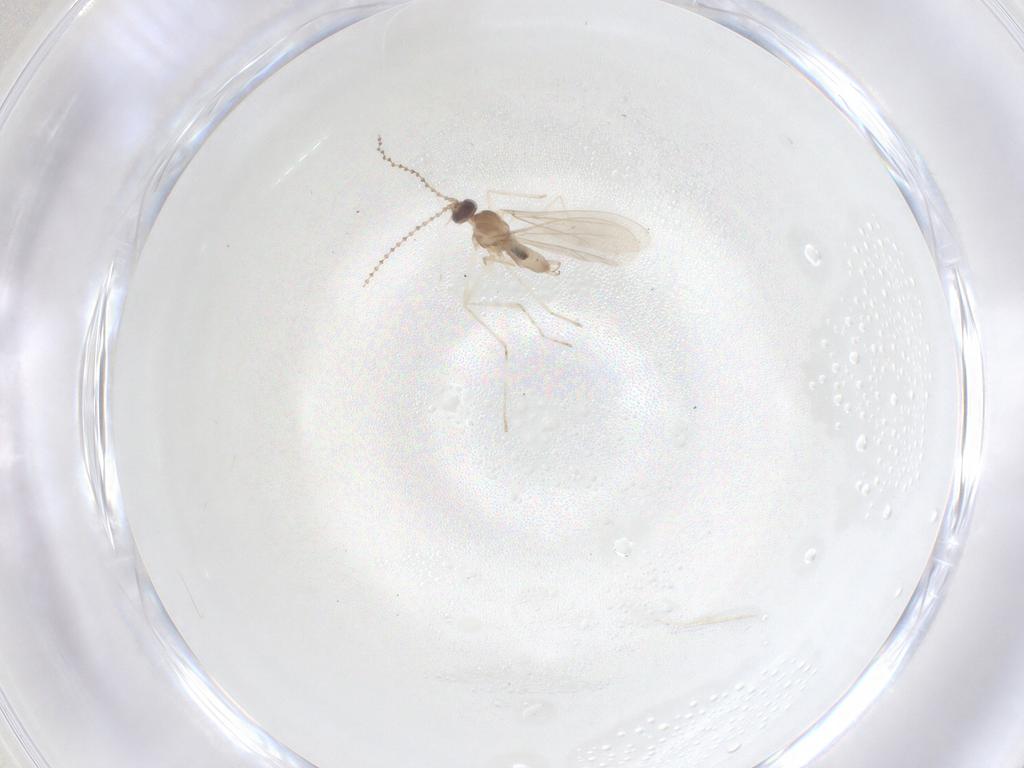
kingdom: Animalia
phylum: Arthropoda
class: Insecta
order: Diptera
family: Cecidomyiidae
